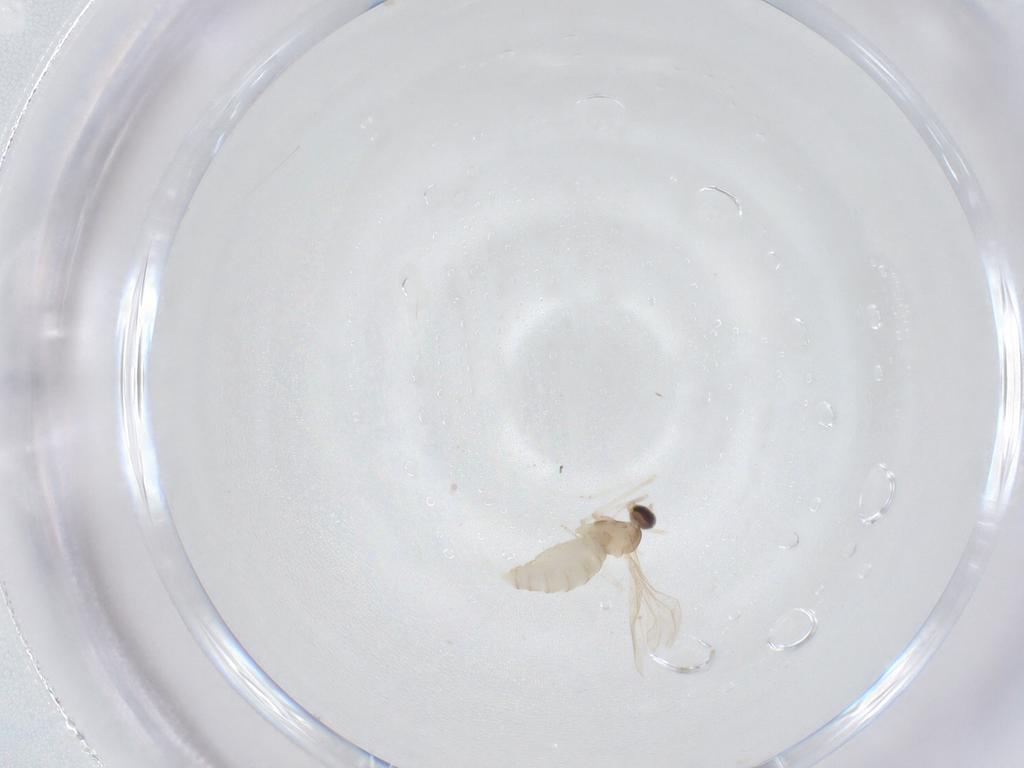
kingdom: Animalia
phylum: Arthropoda
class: Insecta
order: Diptera
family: Cecidomyiidae
